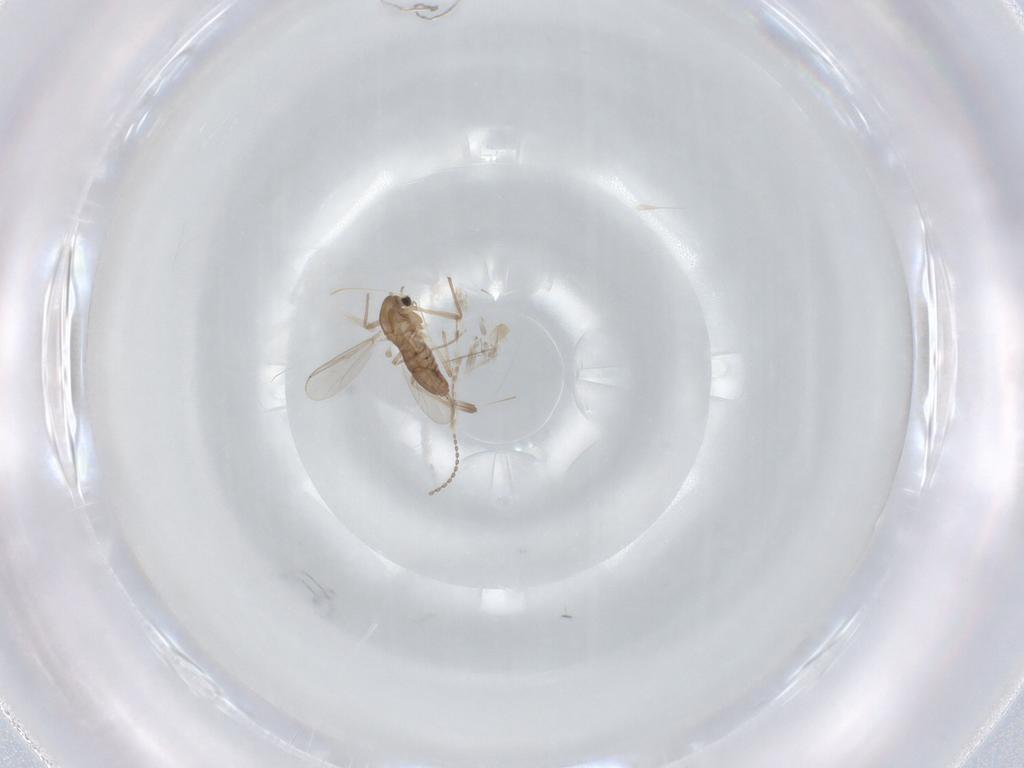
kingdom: Animalia
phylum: Arthropoda
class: Insecta
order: Diptera
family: Chironomidae
